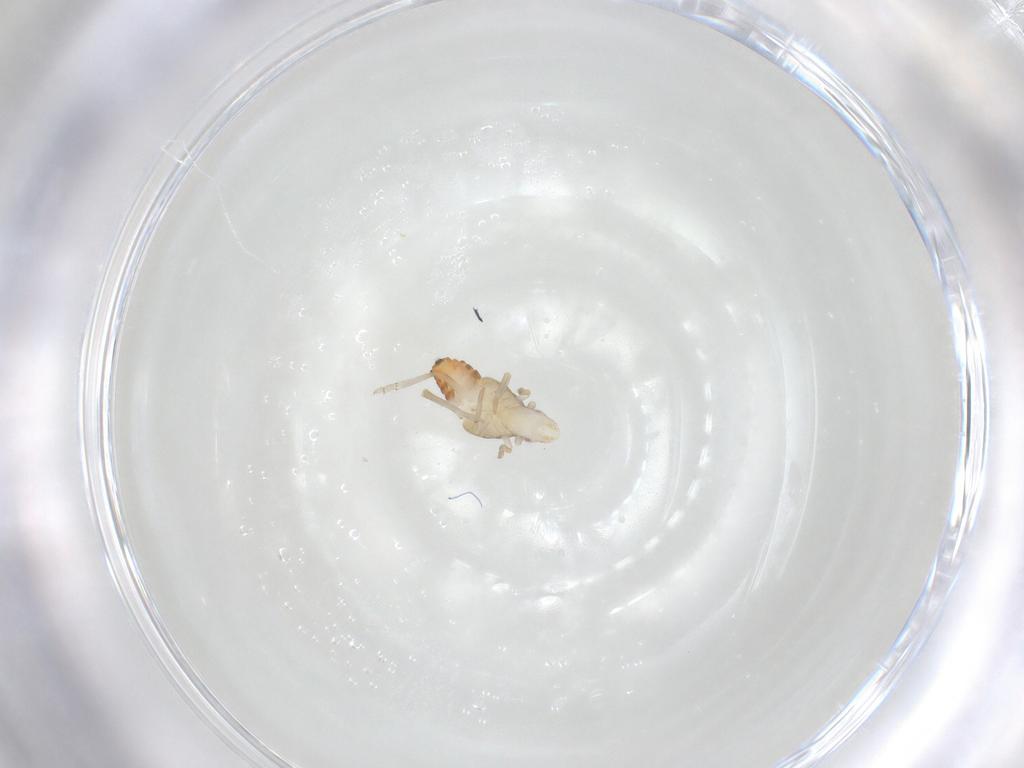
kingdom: Animalia
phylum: Arthropoda
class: Insecta
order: Hemiptera
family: Tropiduchidae
